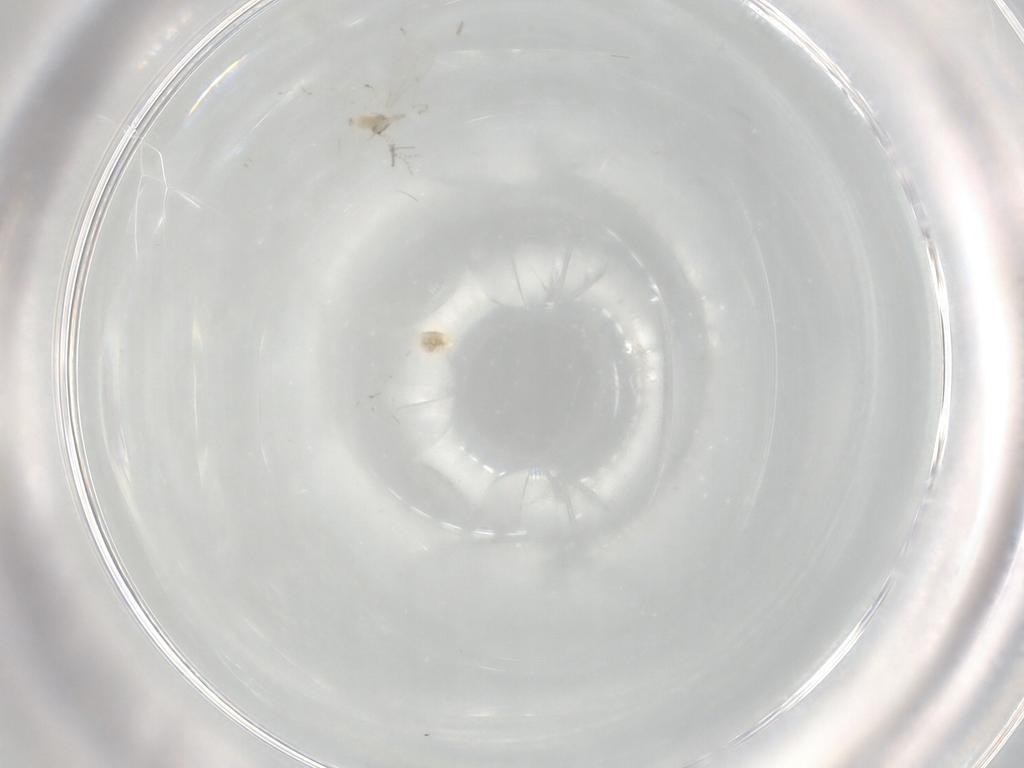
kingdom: Animalia
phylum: Arthropoda
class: Insecta
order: Diptera
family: Cecidomyiidae
